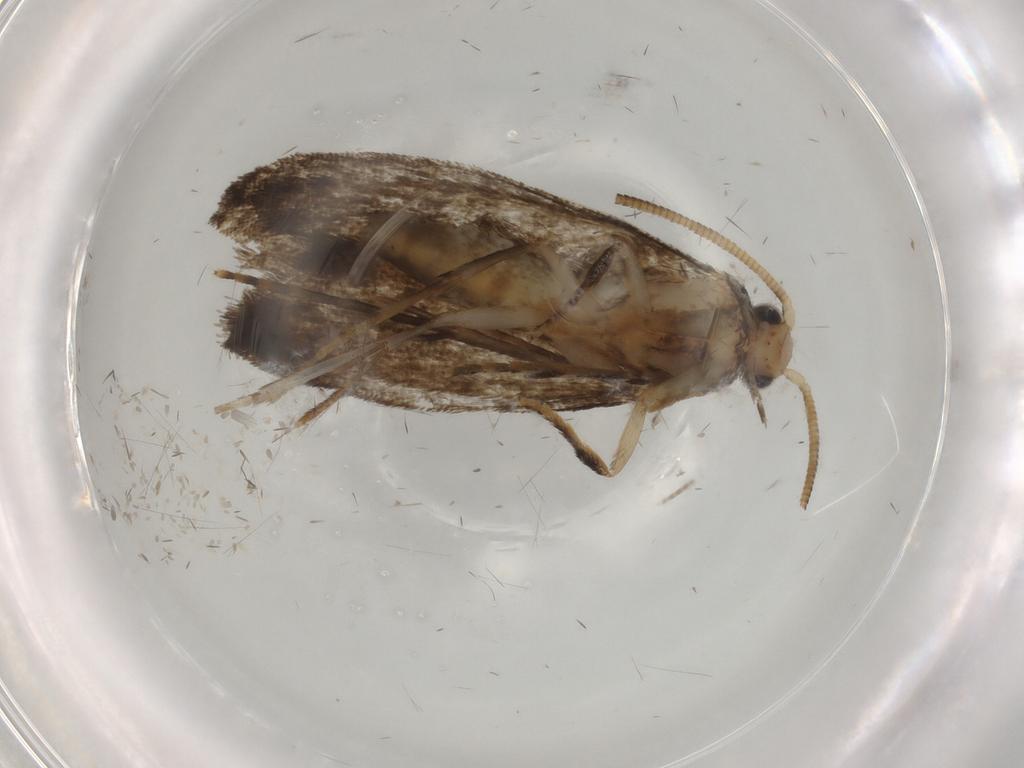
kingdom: Animalia
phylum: Arthropoda
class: Insecta
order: Lepidoptera
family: Tineidae
